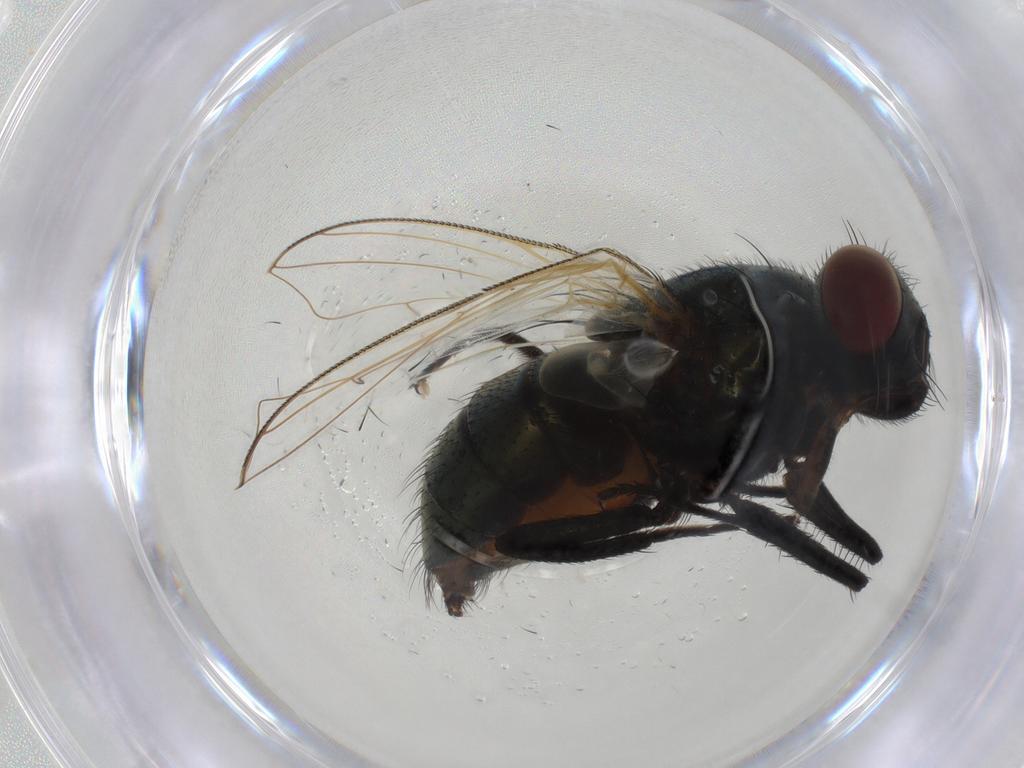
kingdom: Animalia
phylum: Arthropoda
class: Insecta
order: Diptera
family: Muscidae
